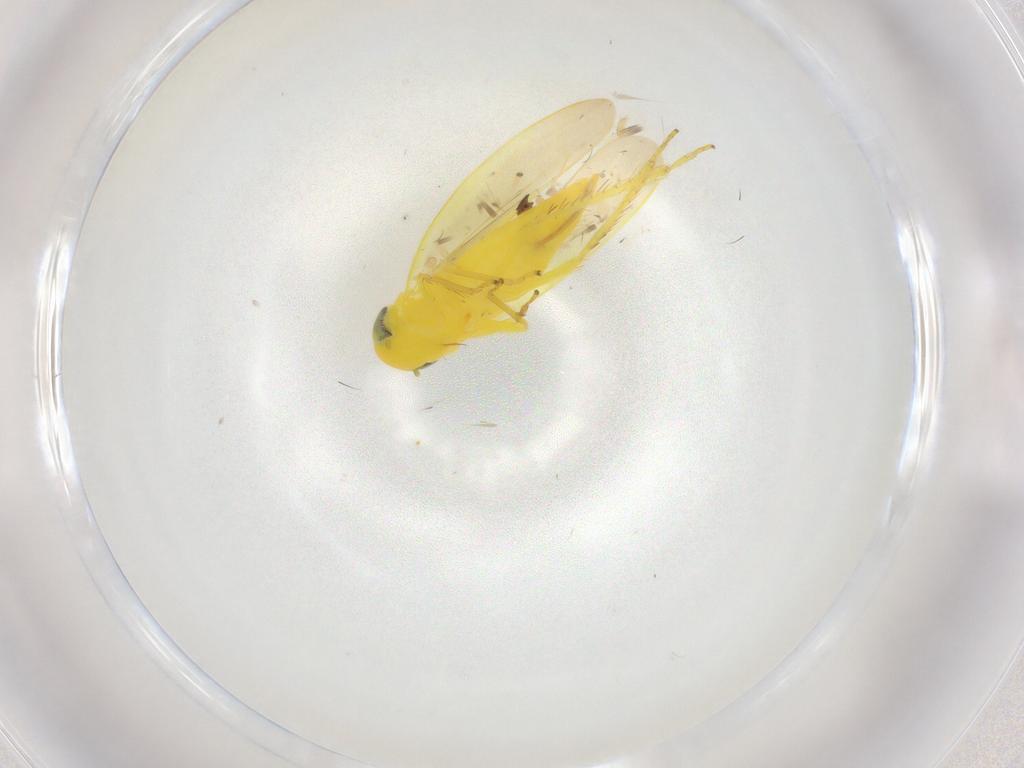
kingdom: Animalia
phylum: Arthropoda
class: Insecta
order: Hemiptera
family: Cicadellidae
